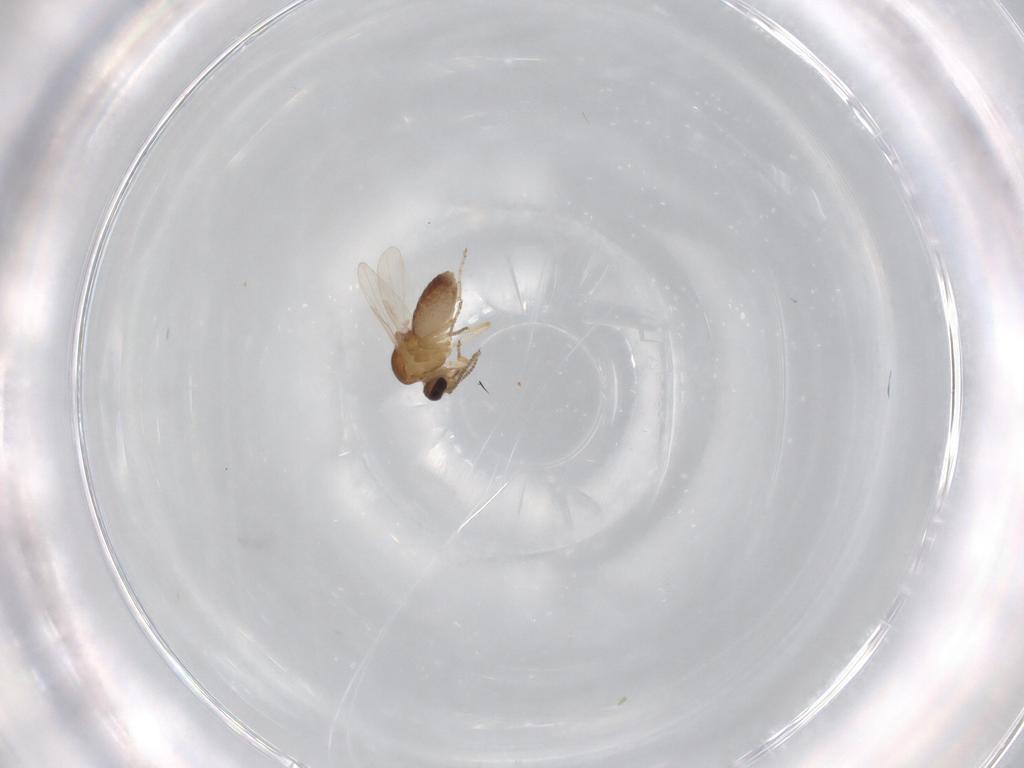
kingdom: Animalia
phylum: Arthropoda
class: Insecta
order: Diptera
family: Ceratopogonidae
